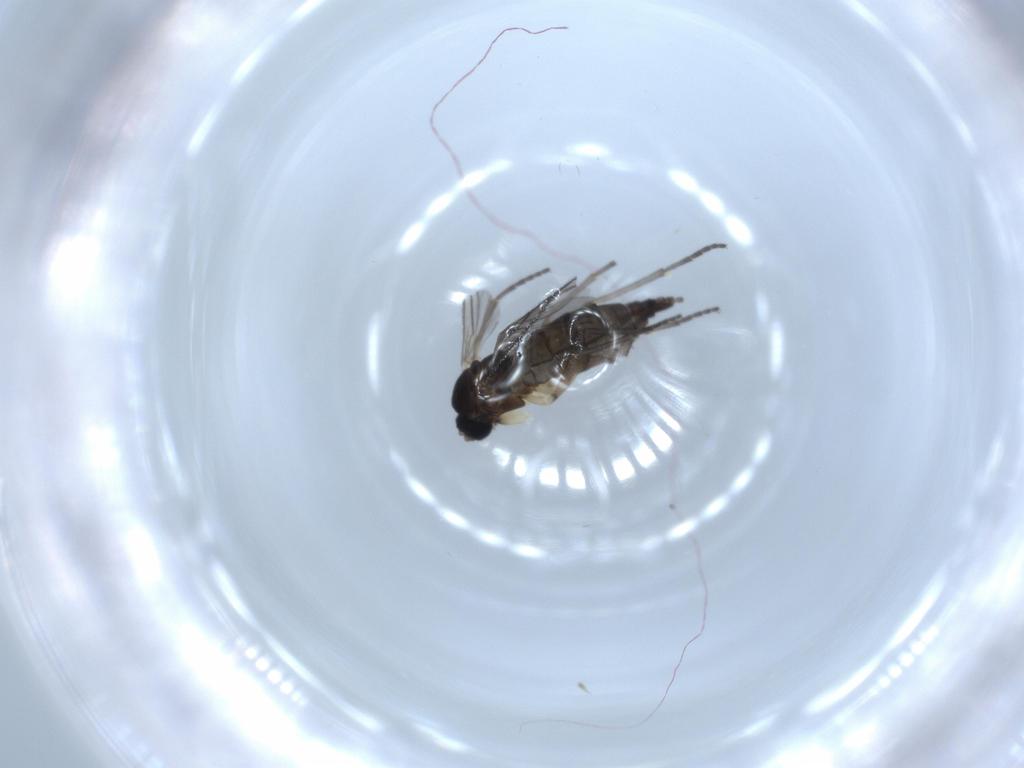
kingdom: Animalia
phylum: Arthropoda
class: Insecta
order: Diptera
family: Sciaridae
